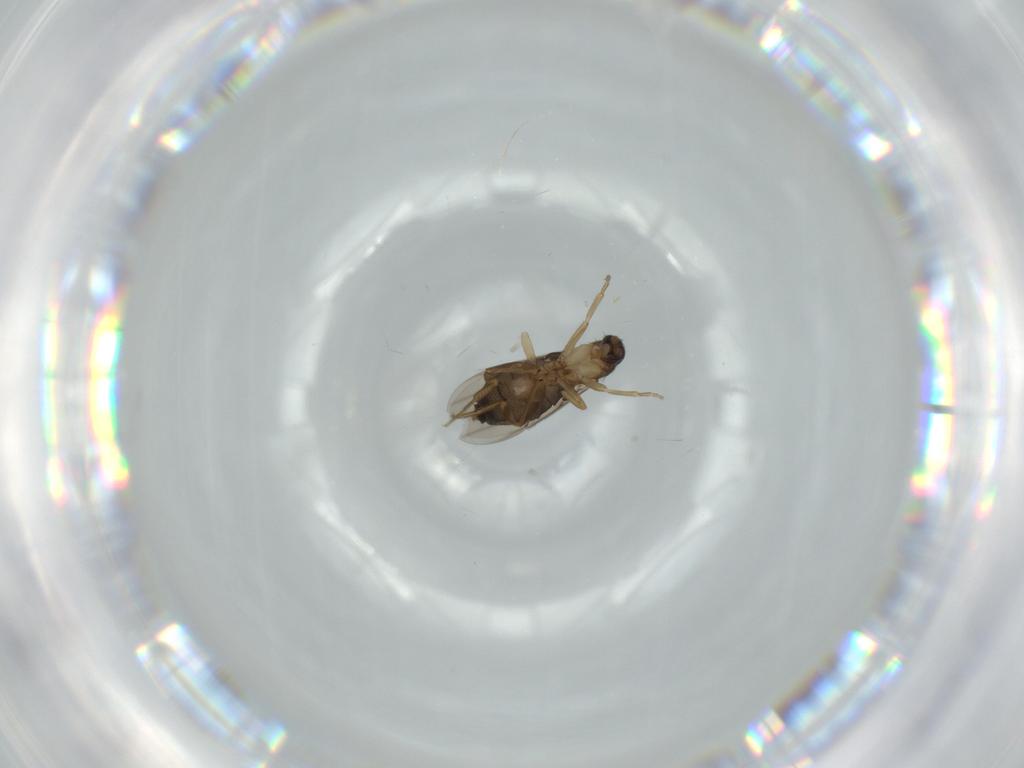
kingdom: Animalia
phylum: Arthropoda
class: Insecta
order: Diptera
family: Phoridae
